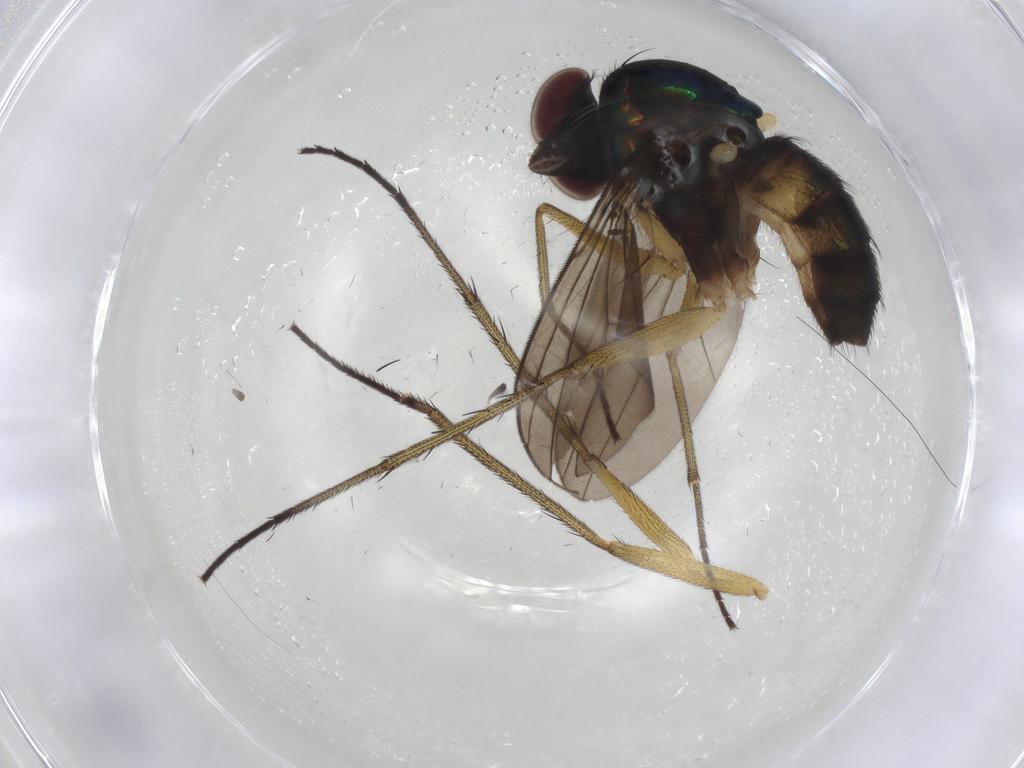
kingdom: Animalia
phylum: Arthropoda
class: Insecta
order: Diptera
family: Dolichopodidae
